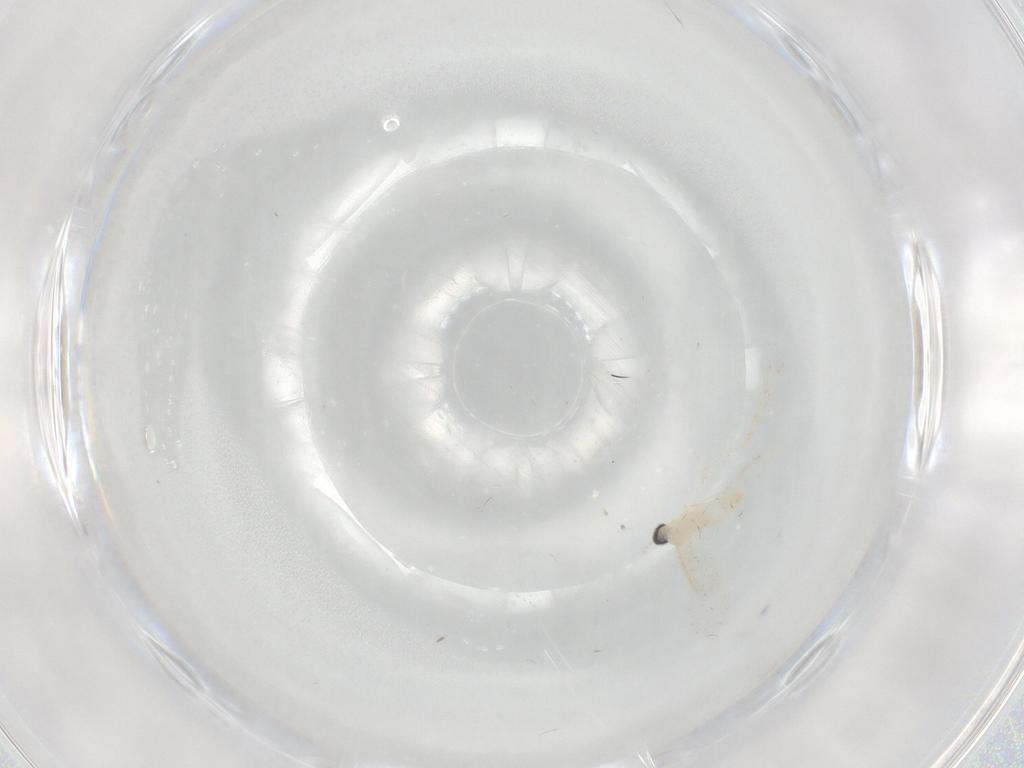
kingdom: Animalia
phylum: Arthropoda
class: Insecta
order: Diptera
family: Cecidomyiidae
